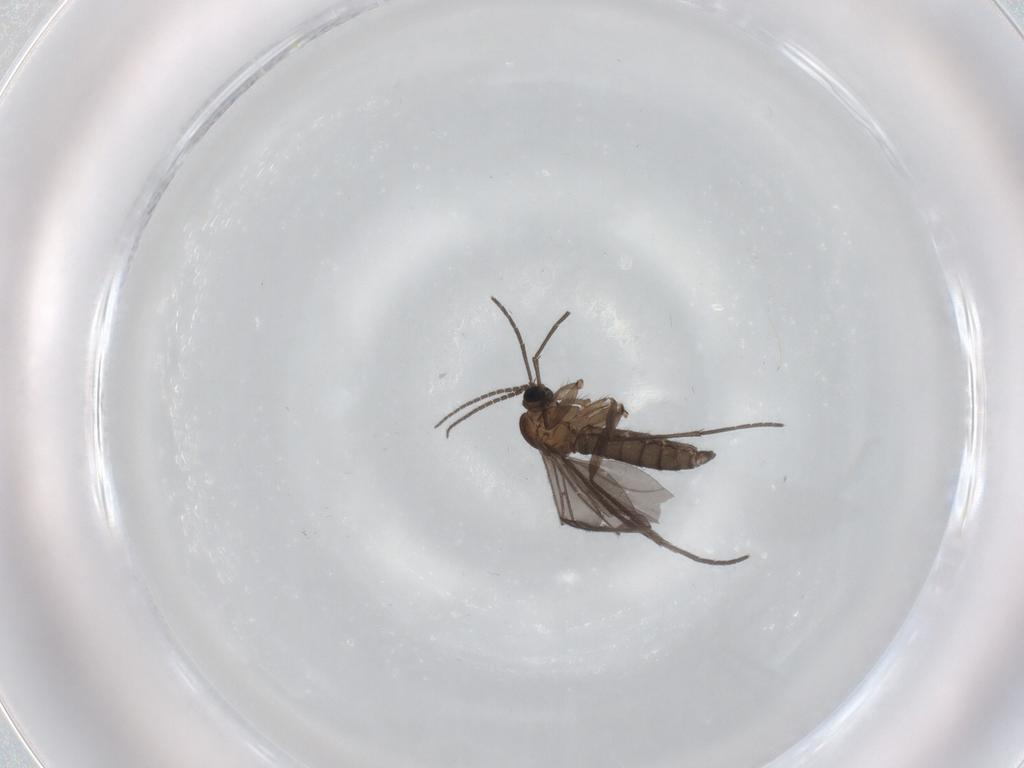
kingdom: Animalia
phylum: Arthropoda
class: Insecta
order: Diptera
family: Sciaridae
